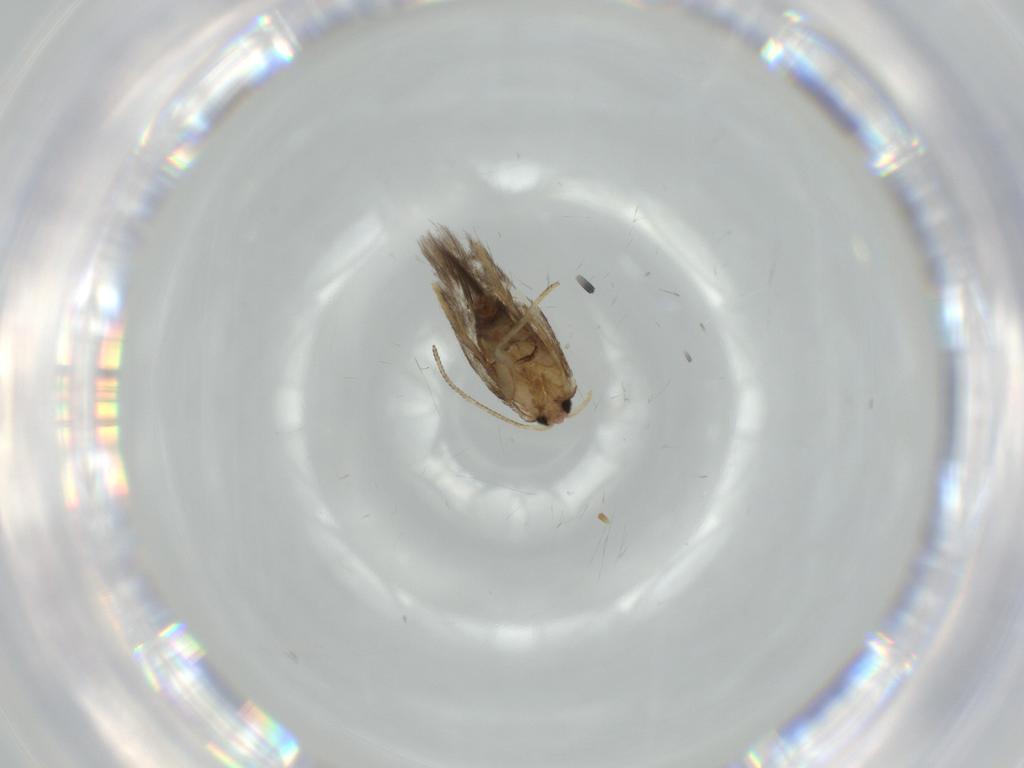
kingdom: Animalia
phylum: Arthropoda
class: Insecta
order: Lepidoptera
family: Nepticulidae
